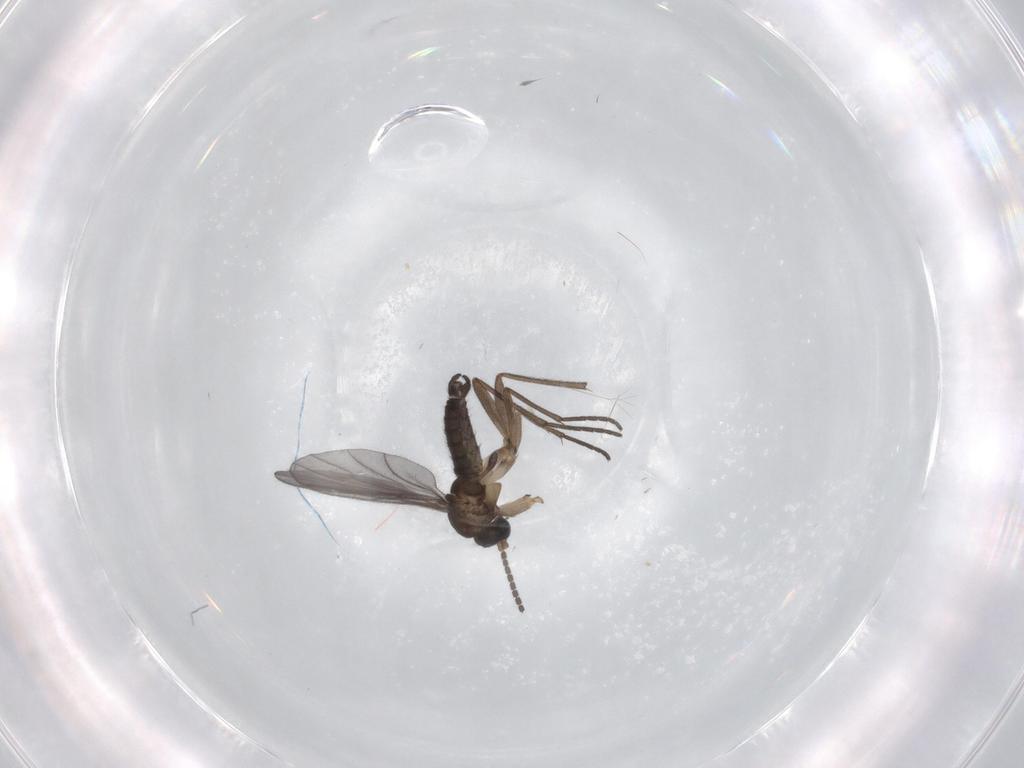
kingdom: Animalia
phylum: Arthropoda
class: Insecta
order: Diptera
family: Sciaridae
